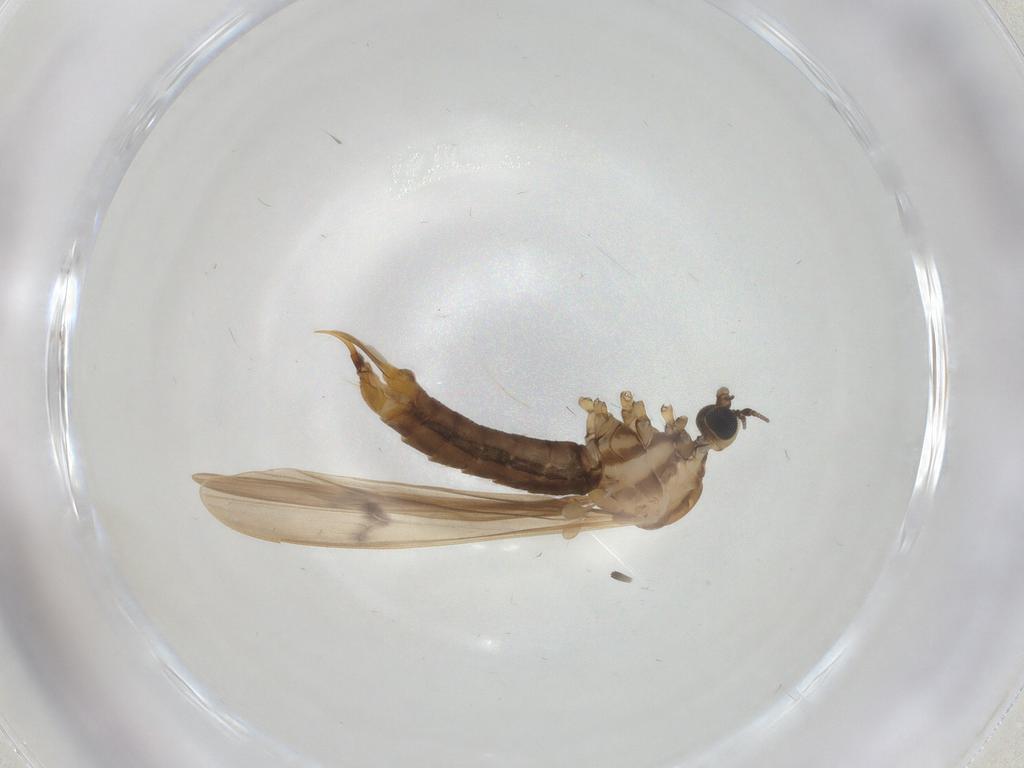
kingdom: Animalia
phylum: Arthropoda
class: Insecta
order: Diptera
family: Limoniidae
